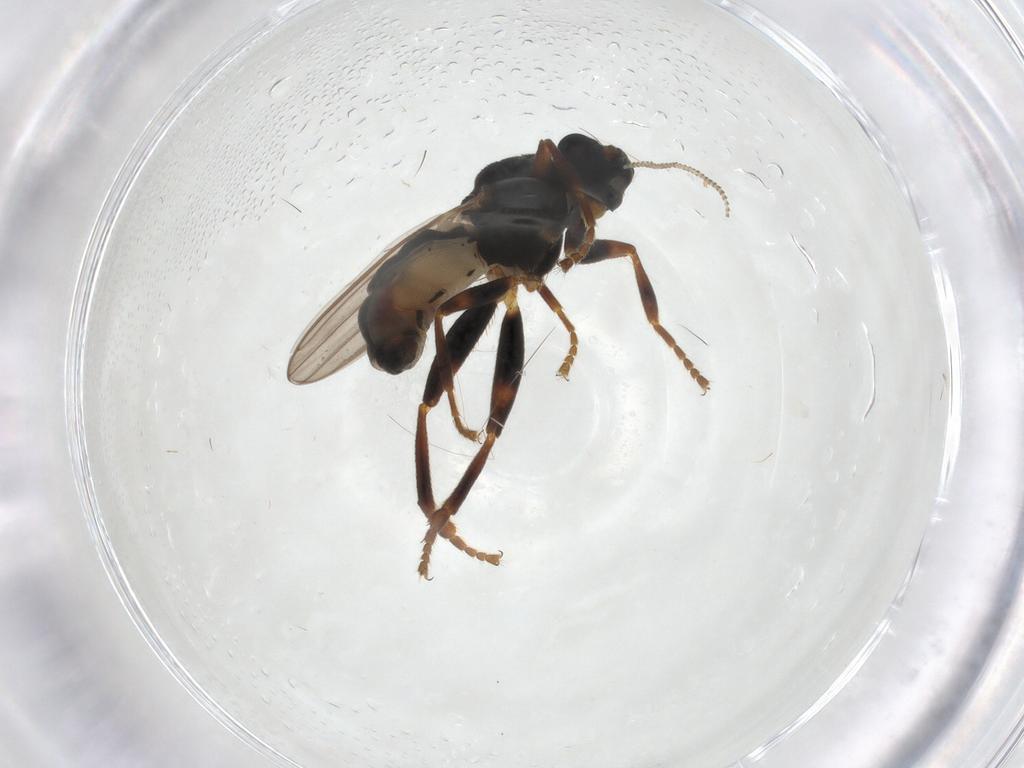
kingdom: Animalia
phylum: Arthropoda
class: Insecta
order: Diptera
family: Sphaeroceridae
